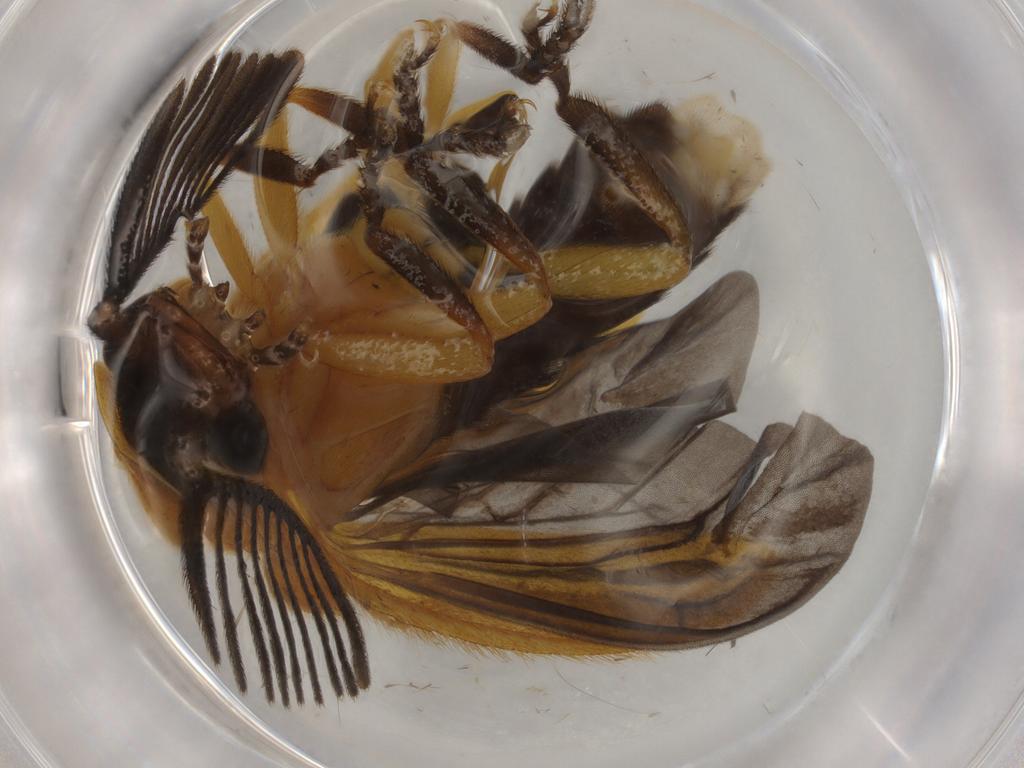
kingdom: Animalia
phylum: Arthropoda
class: Insecta
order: Coleoptera
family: Lampyridae
